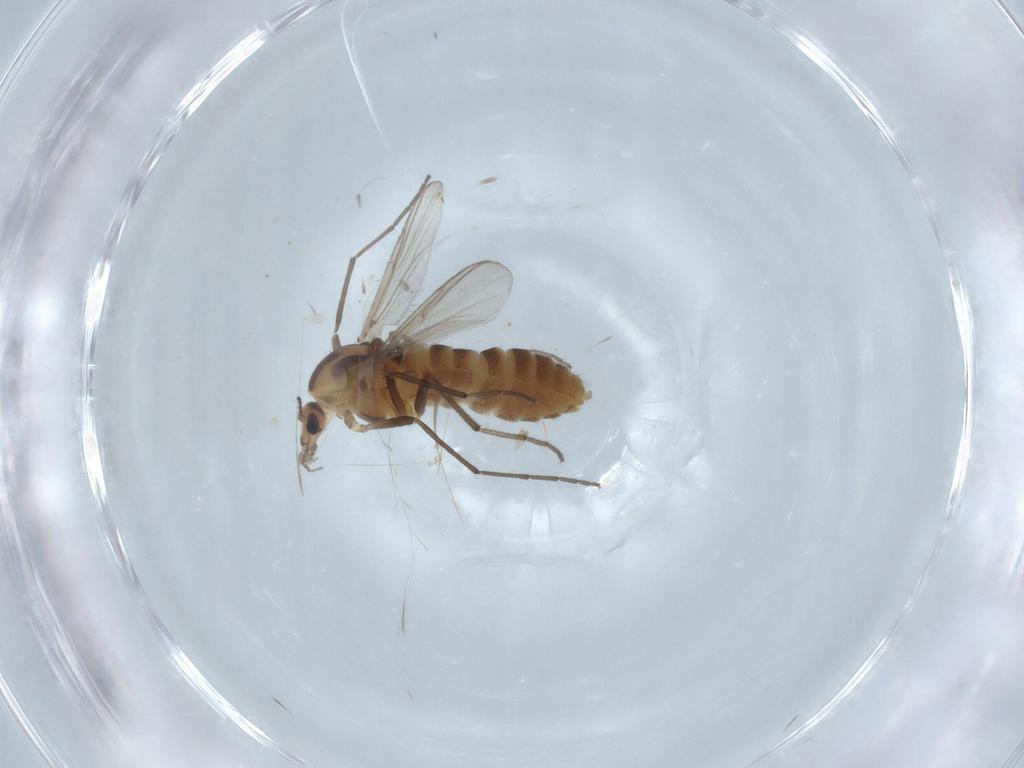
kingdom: Animalia
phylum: Arthropoda
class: Insecta
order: Diptera
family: Chironomidae
